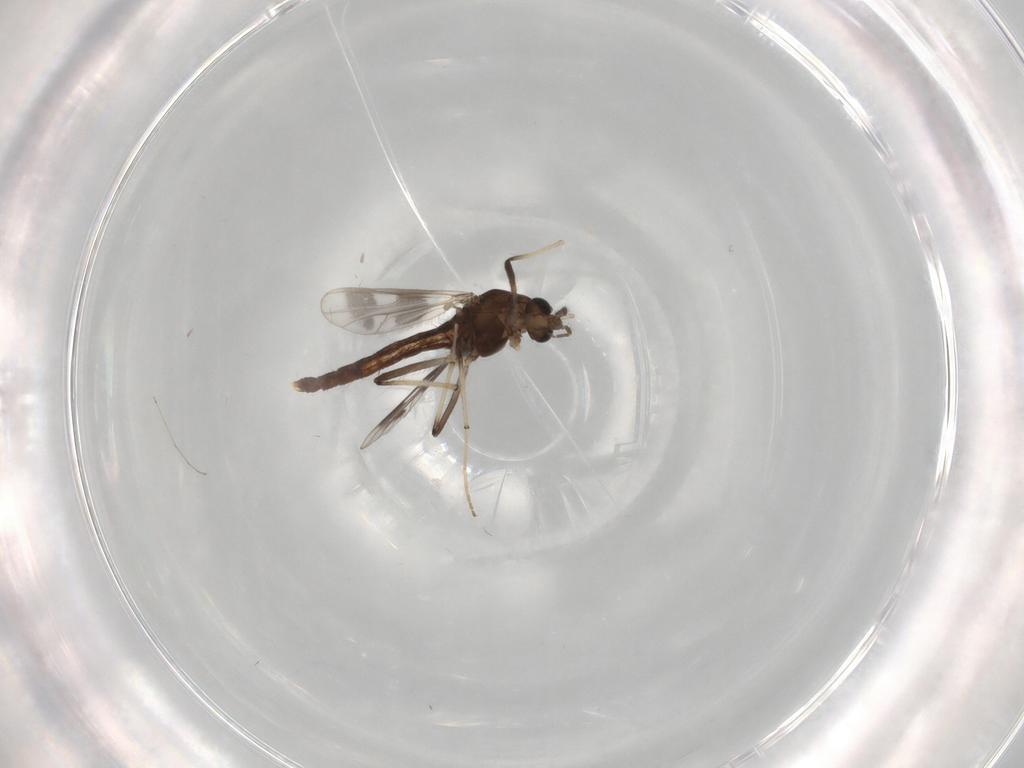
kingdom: Animalia
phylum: Arthropoda
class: Insecta
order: Diptera
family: Chironomidae
